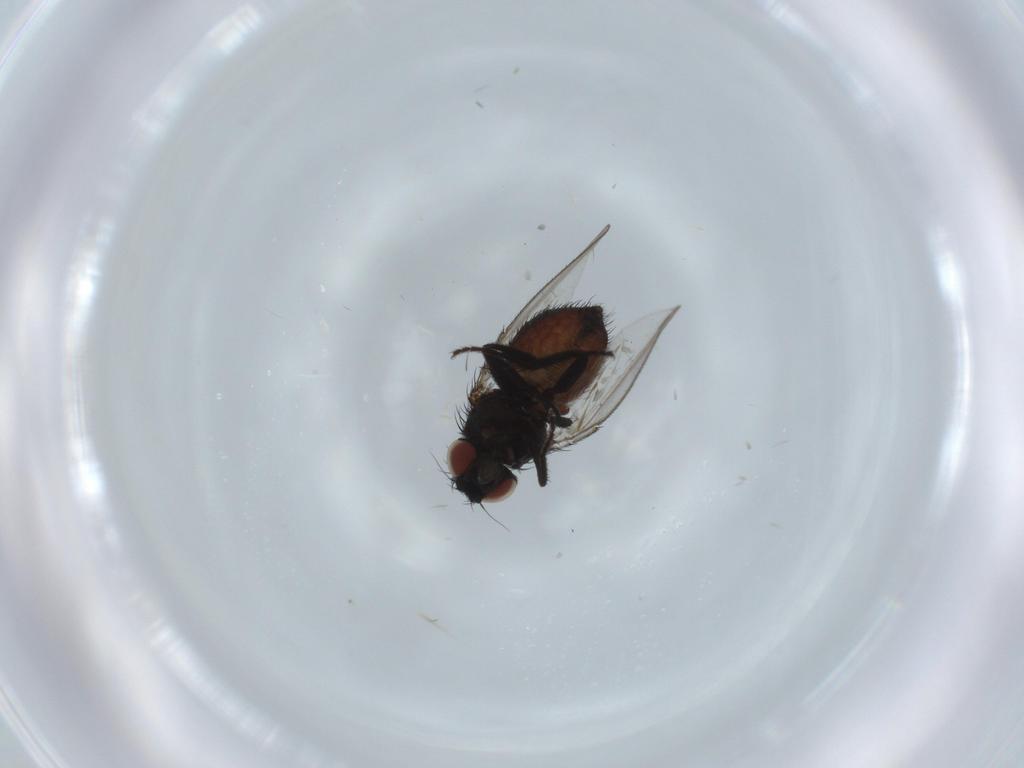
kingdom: Animalia
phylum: Arthropoda
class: Insecta
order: Diptera
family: Milichiidae
